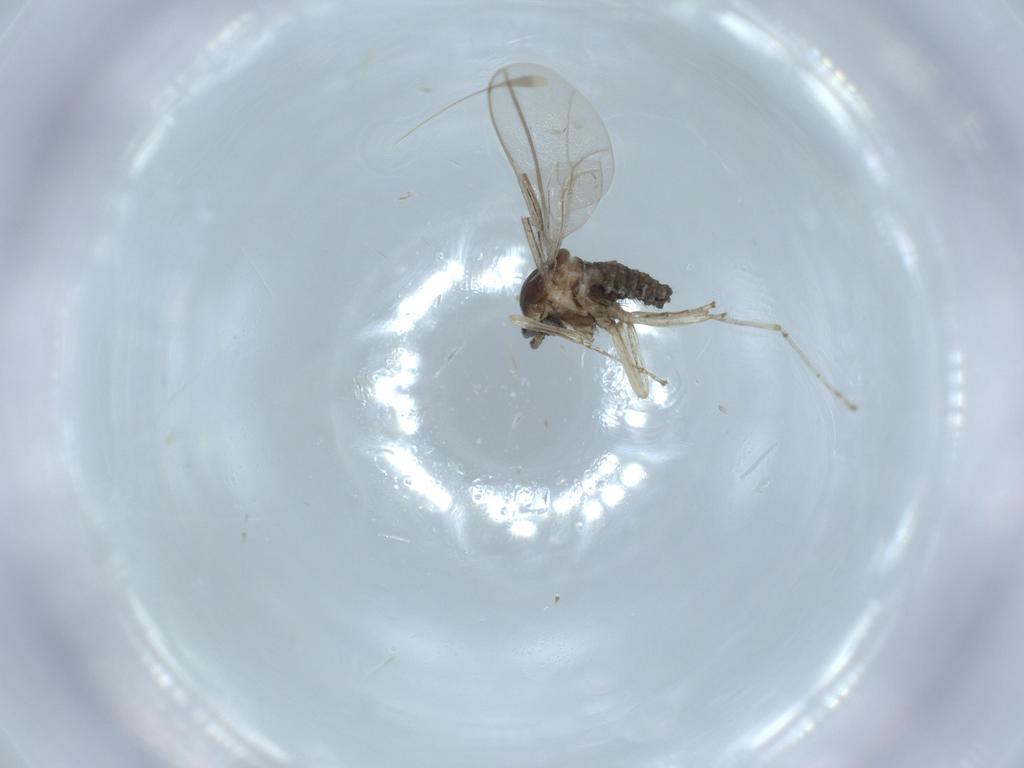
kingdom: Animalia
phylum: Arthropoda
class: Insecta
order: Diptera
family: Cecidomyiidae
